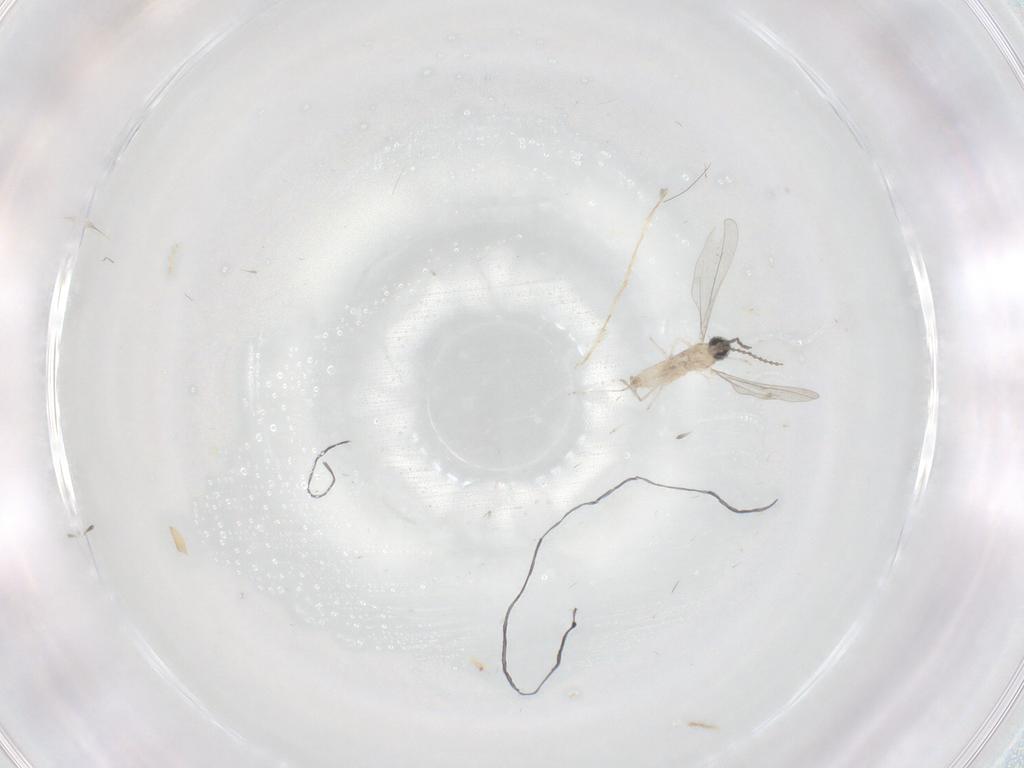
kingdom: Animalia
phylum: Arthropoda
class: Insecta
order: Diptera
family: Cecidomyiidae
